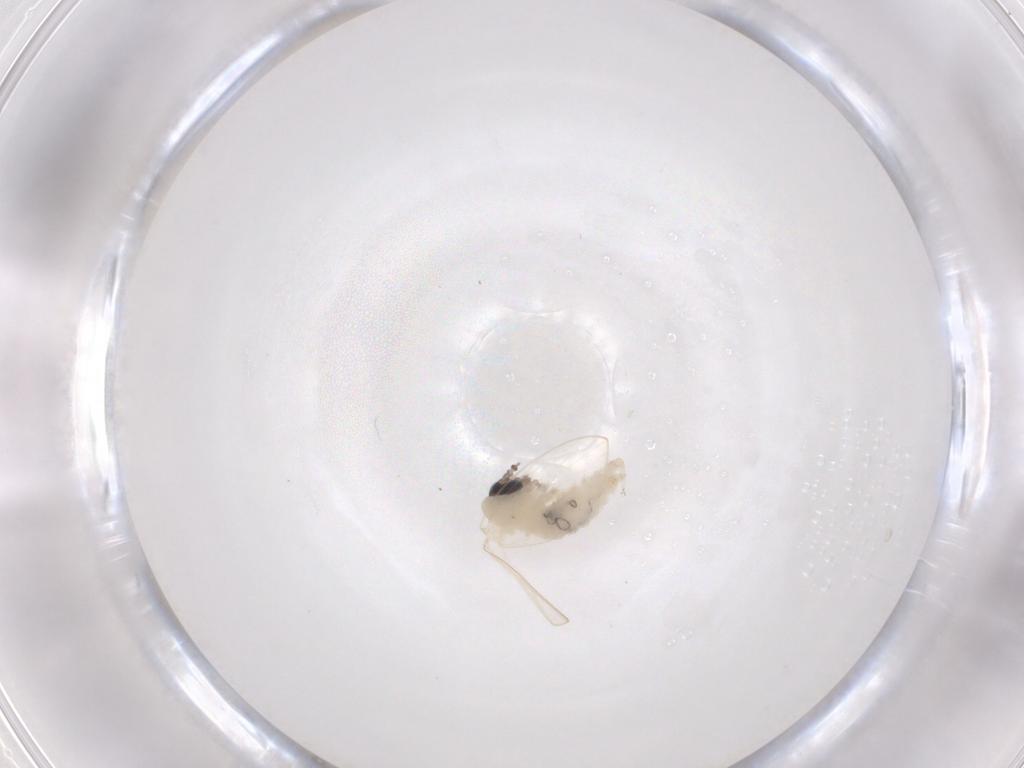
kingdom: Animalia
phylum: Arthropoda
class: Insecta
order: Diptera
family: Psychodidae
